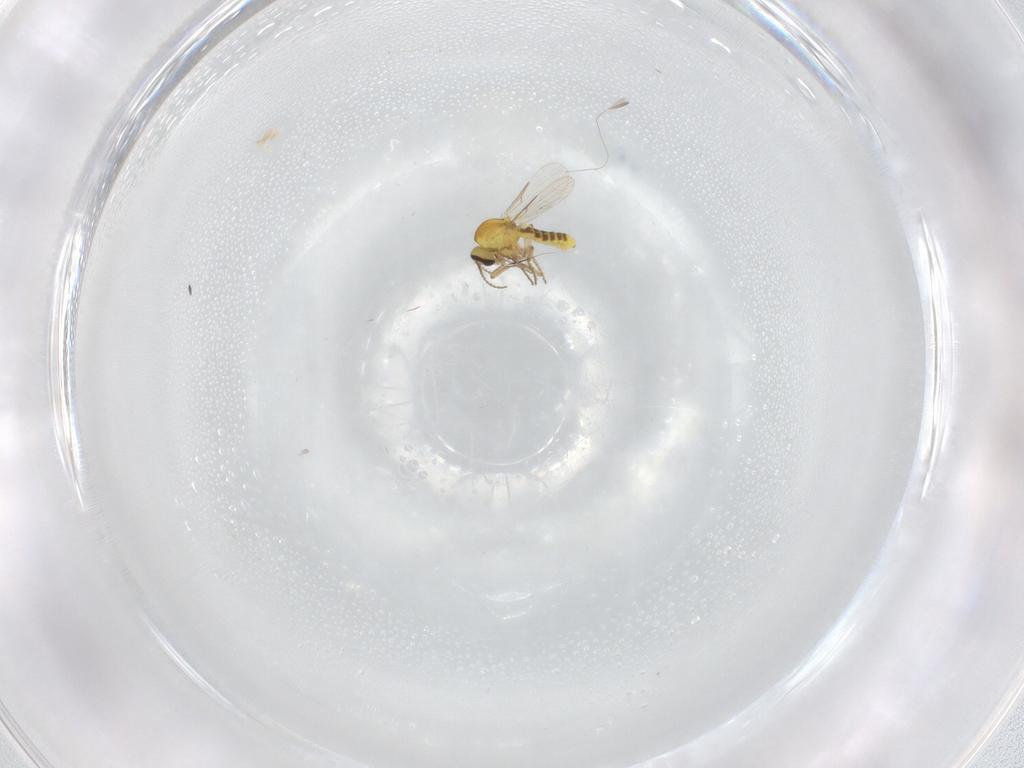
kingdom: Animalia
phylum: Arthropoda
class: Insecta
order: Diptera
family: Ceratopogonidae
